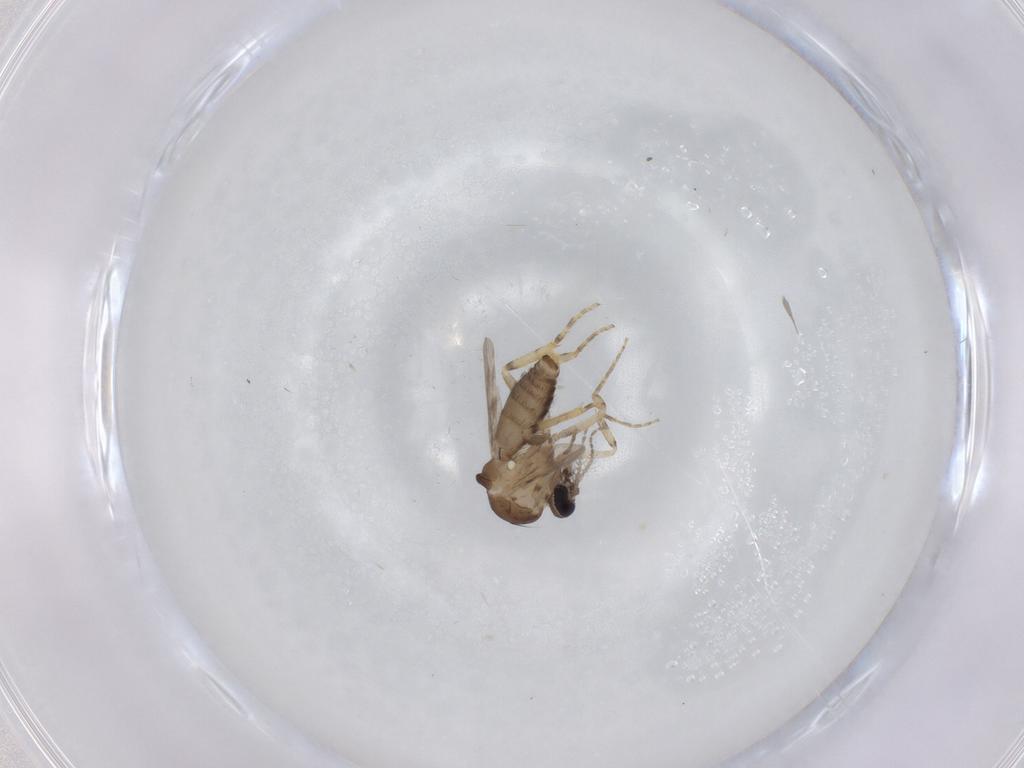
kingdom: Animalia
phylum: Arthropoda
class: Insecta
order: Diptera
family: Ceratopogonidae
